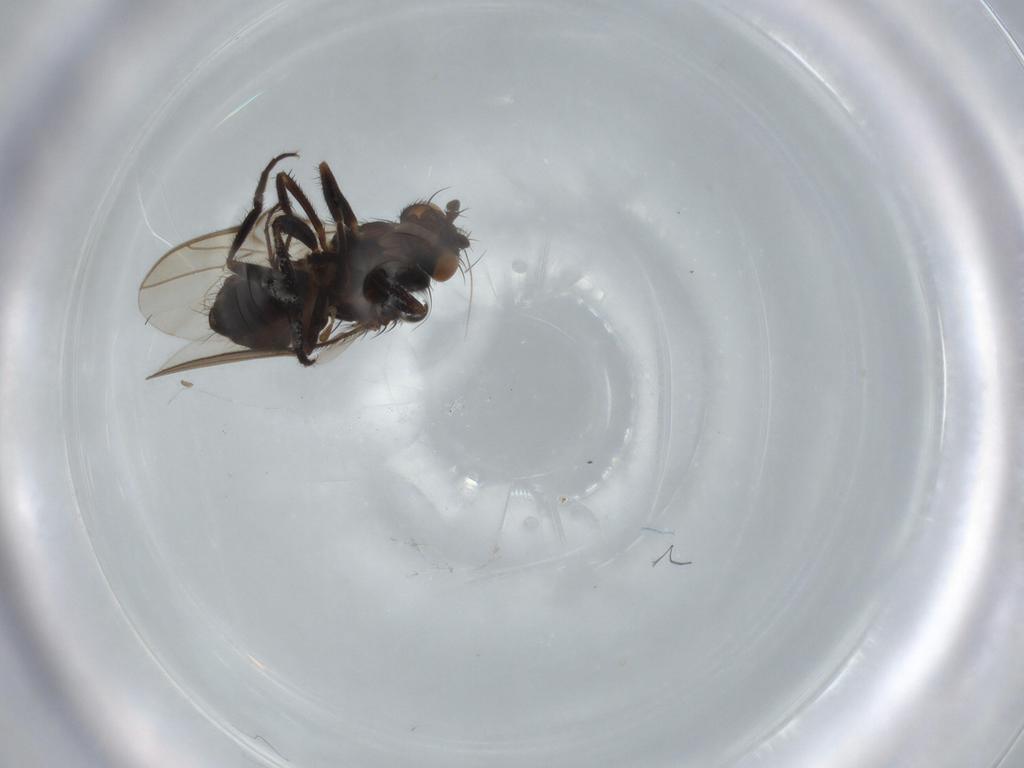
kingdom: Animalia
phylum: Arthropoda
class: Insecta
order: Diptera
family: Sphaeroceridae
